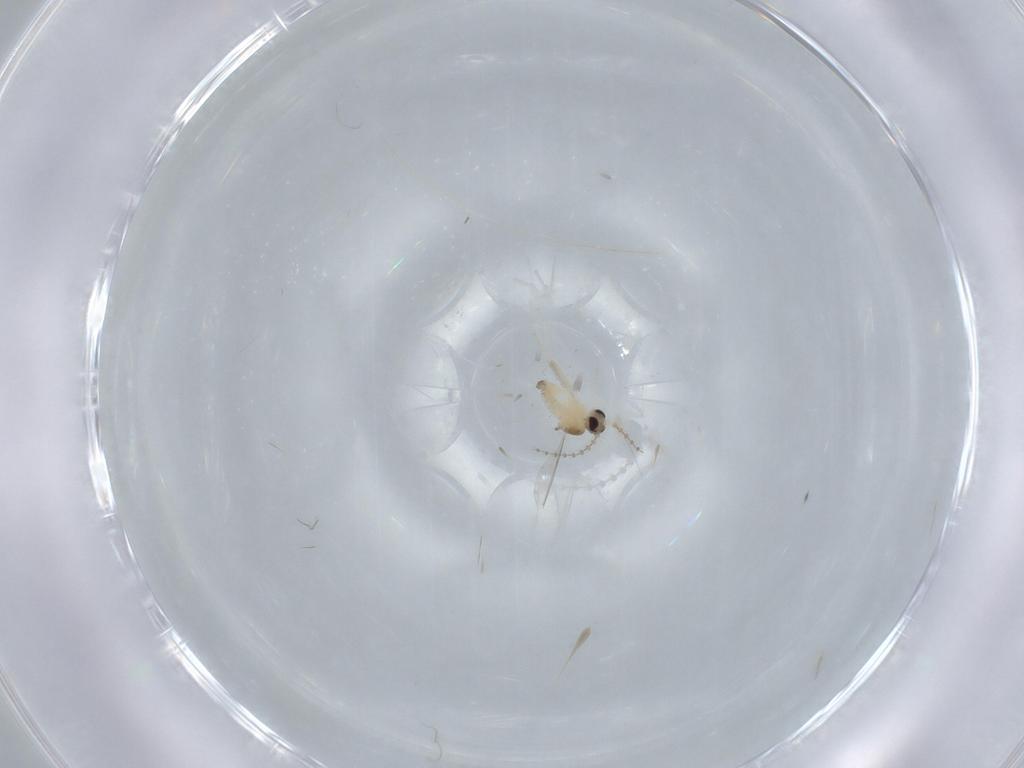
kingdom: Animalia
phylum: Arthropoda
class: Insecta
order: Diptera
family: Cecidomyiidae
